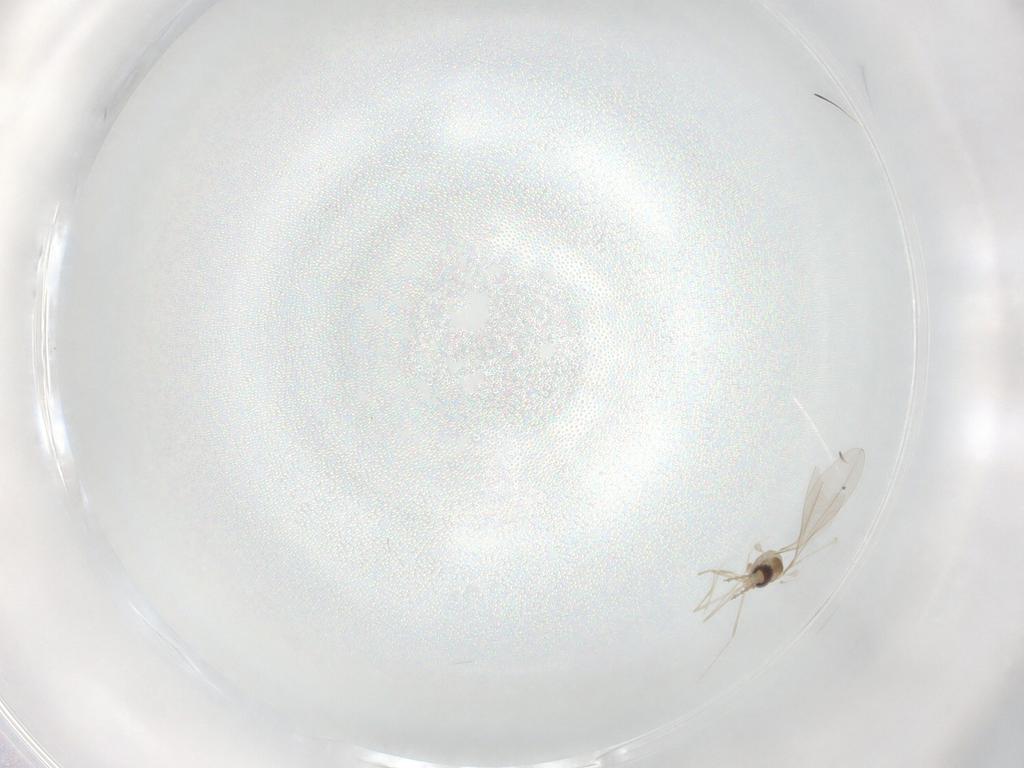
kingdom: Animalia
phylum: Arthropoda
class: Insecta
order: Diptera
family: Cecidomyiidae
